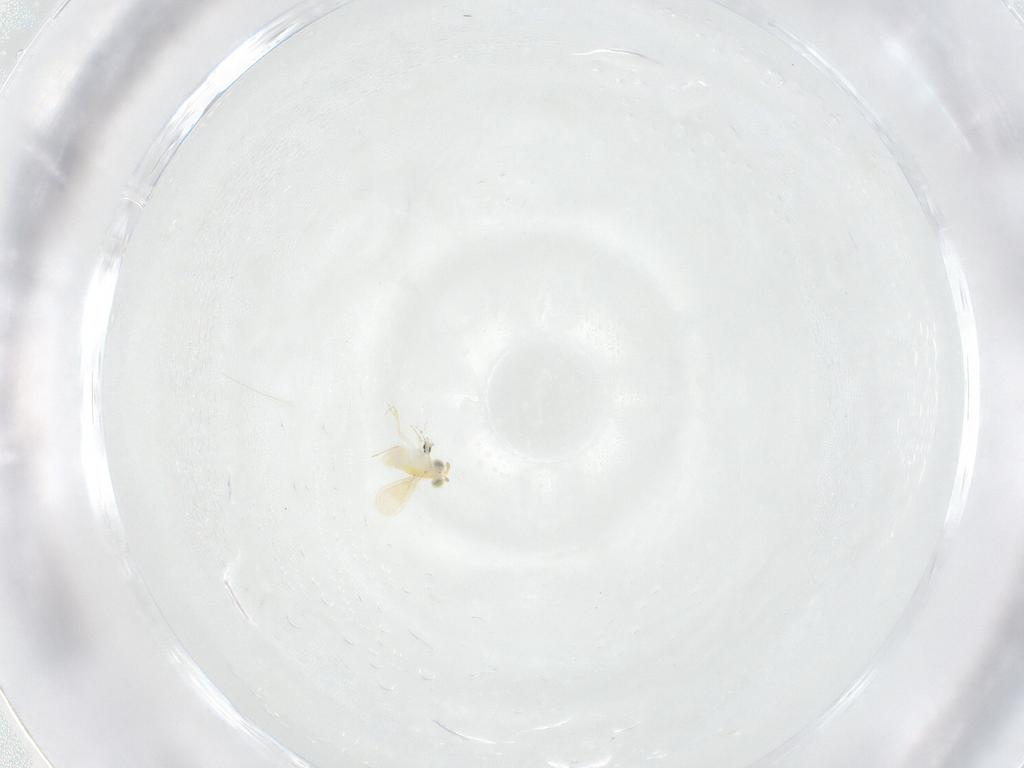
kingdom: Animalia
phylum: Arthropoda
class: Insecta
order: Hymenoptera
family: Aphelinidae
